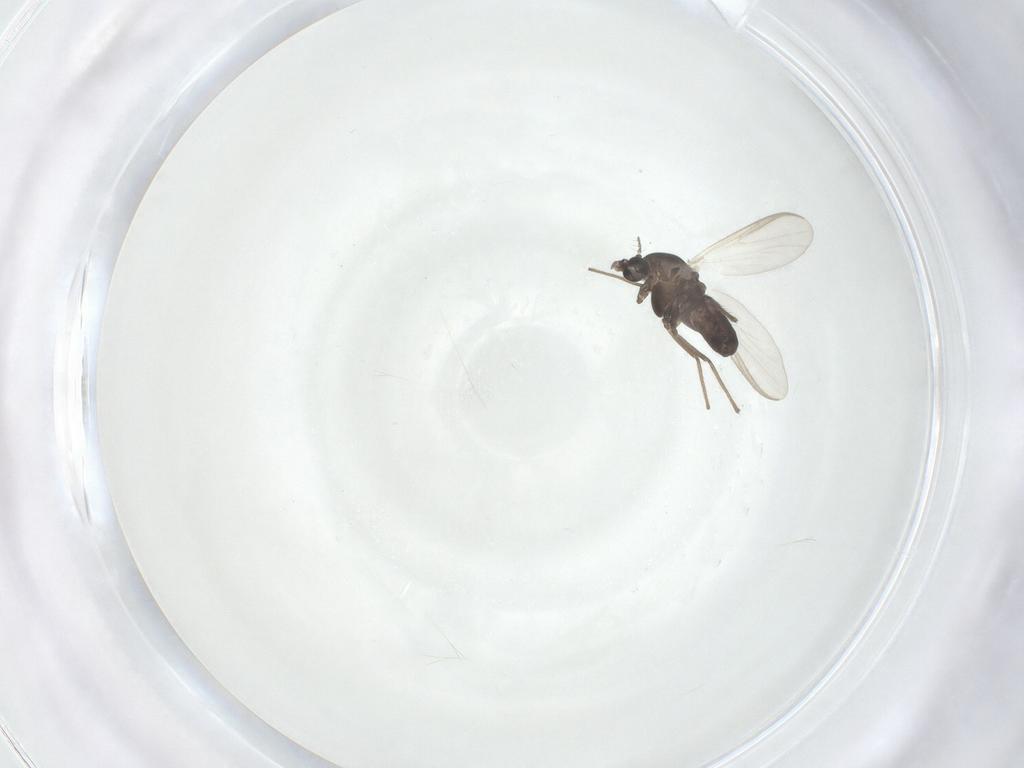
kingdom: Animalia
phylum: Arthropoda
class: Insecta
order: Diptera
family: Chironomidae
